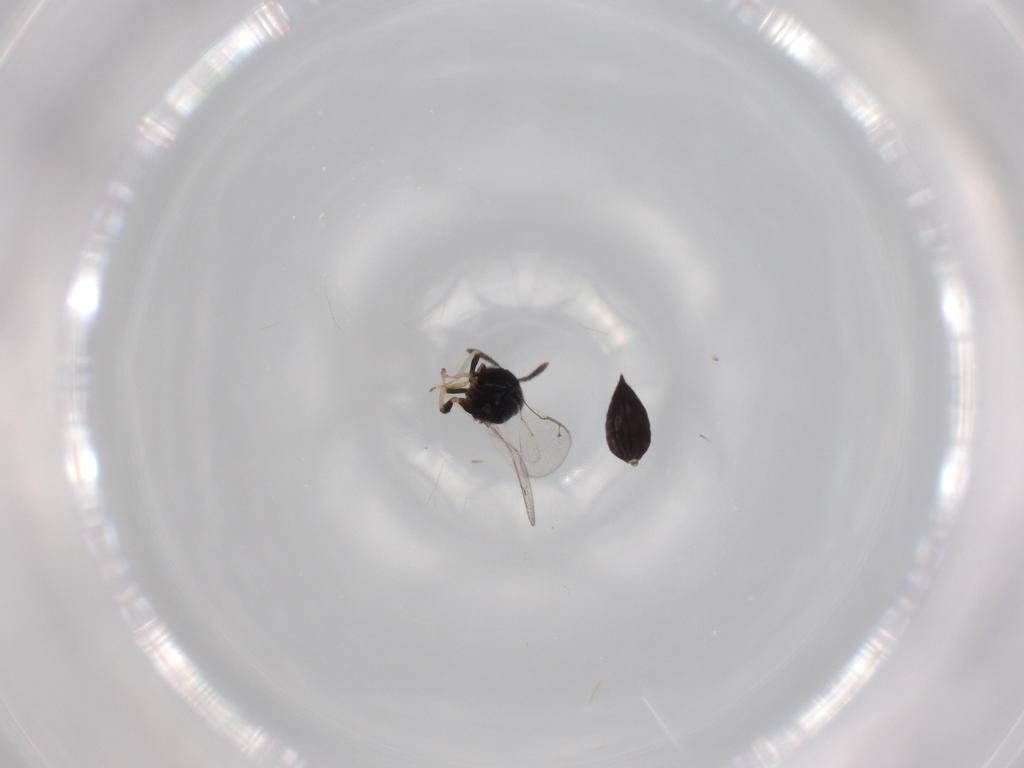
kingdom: Animalia
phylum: Arthropoda
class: Insecta
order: Hymenoptera
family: Pteromalidae
